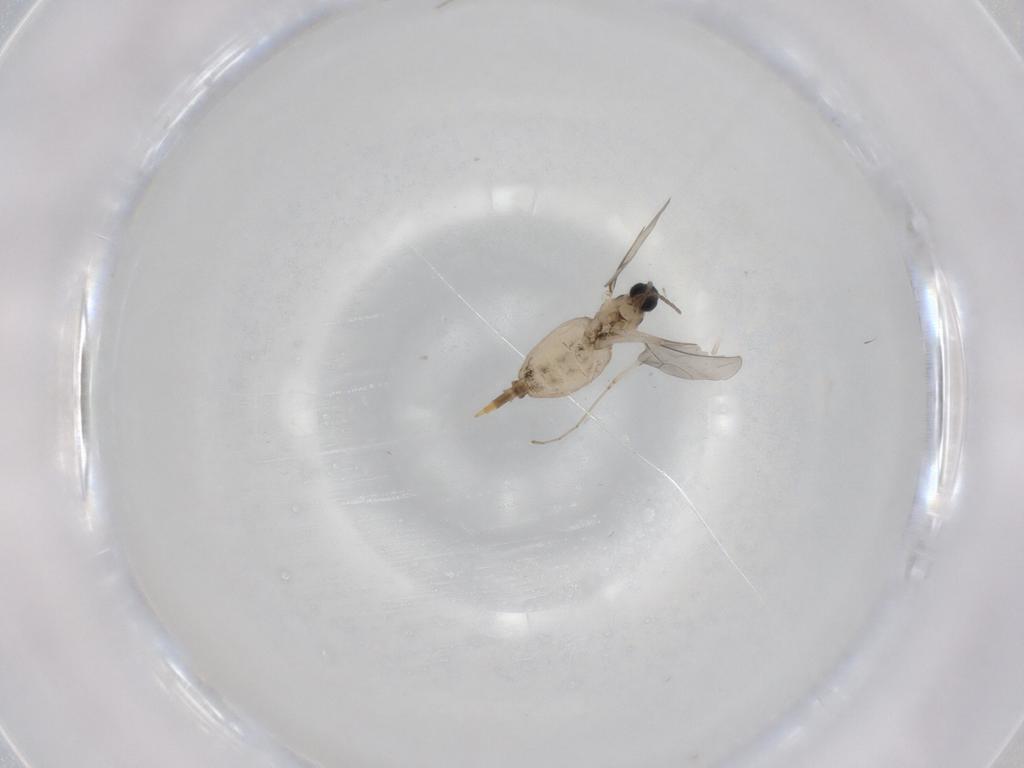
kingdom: Animalia
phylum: Arthropoda
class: Insecta
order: Diptera
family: Cecidomyiidae
